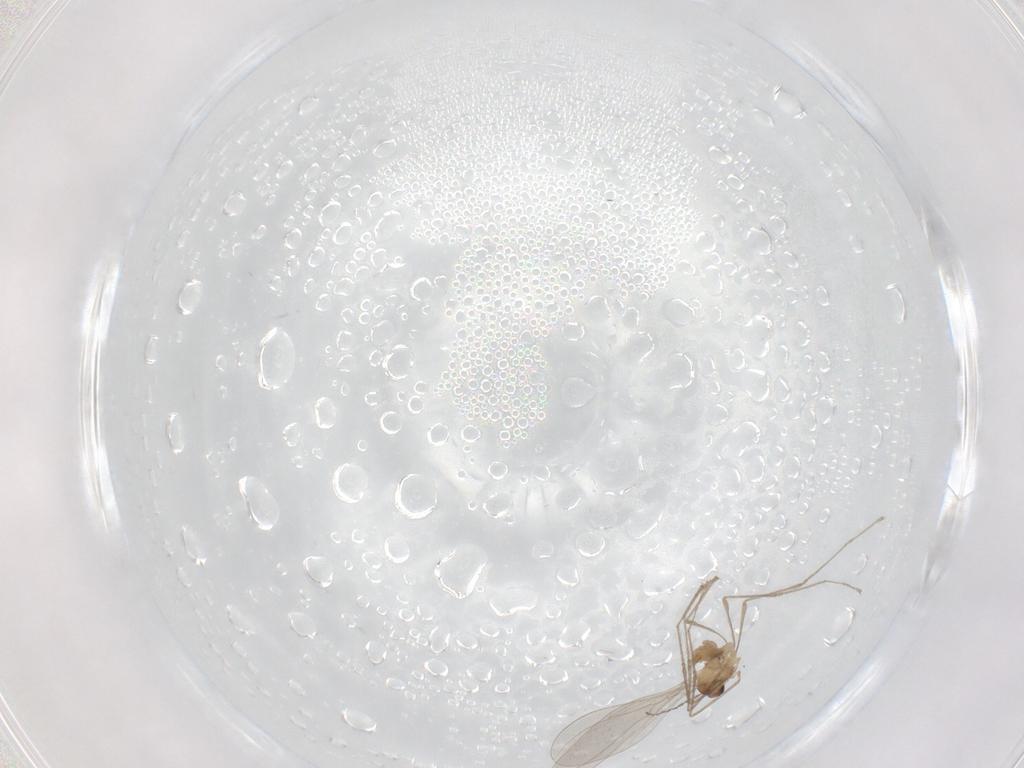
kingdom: Animalia
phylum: Arthropoda
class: Insecta
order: Diptera
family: Cecidomyiidae
